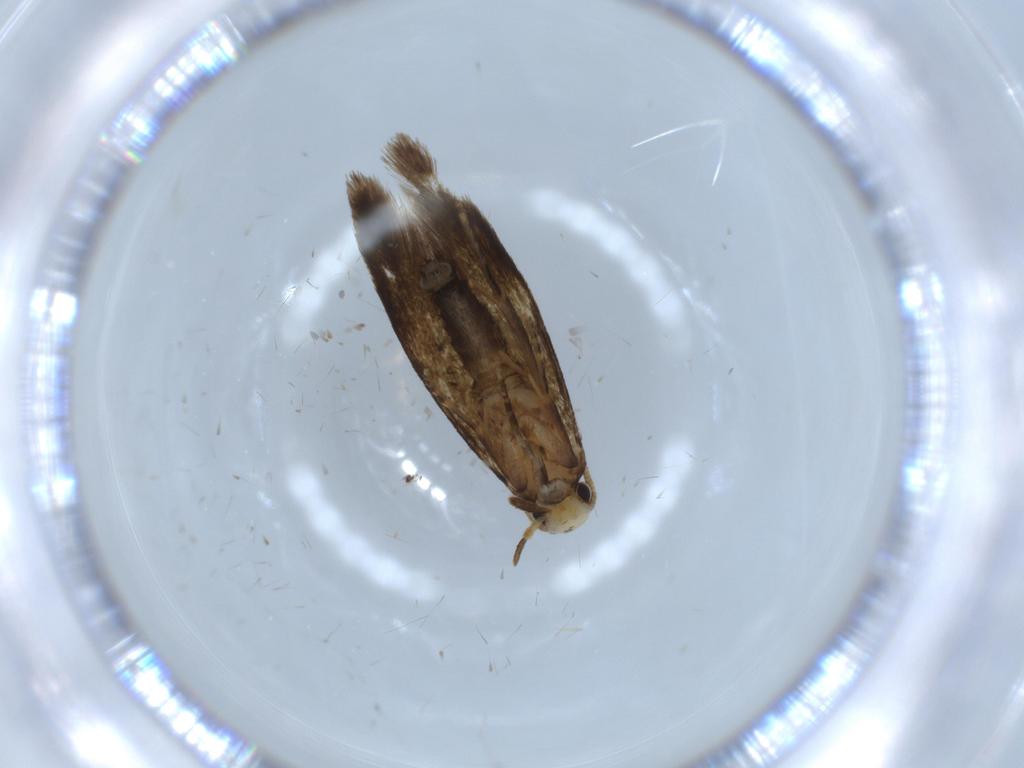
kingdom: Animalia
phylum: Arthropoda
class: Insecta
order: Lepidoptera
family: Tineidae
